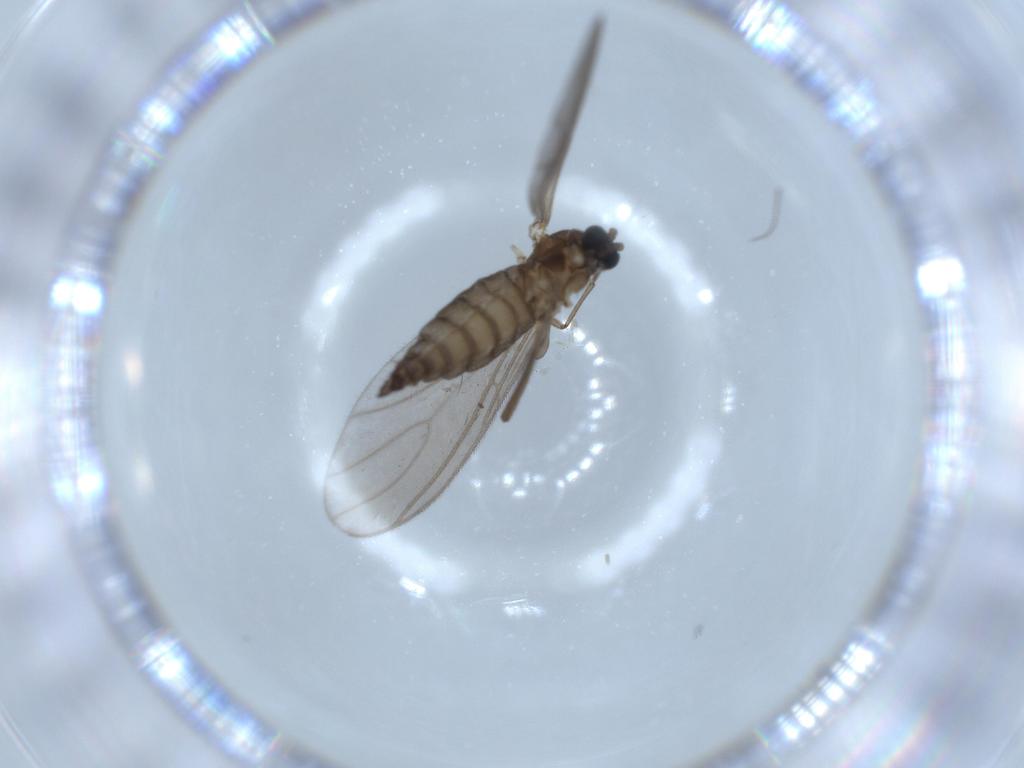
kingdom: Animalia
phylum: Arthropoda
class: Insecta
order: Diptera
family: Sciaridae
